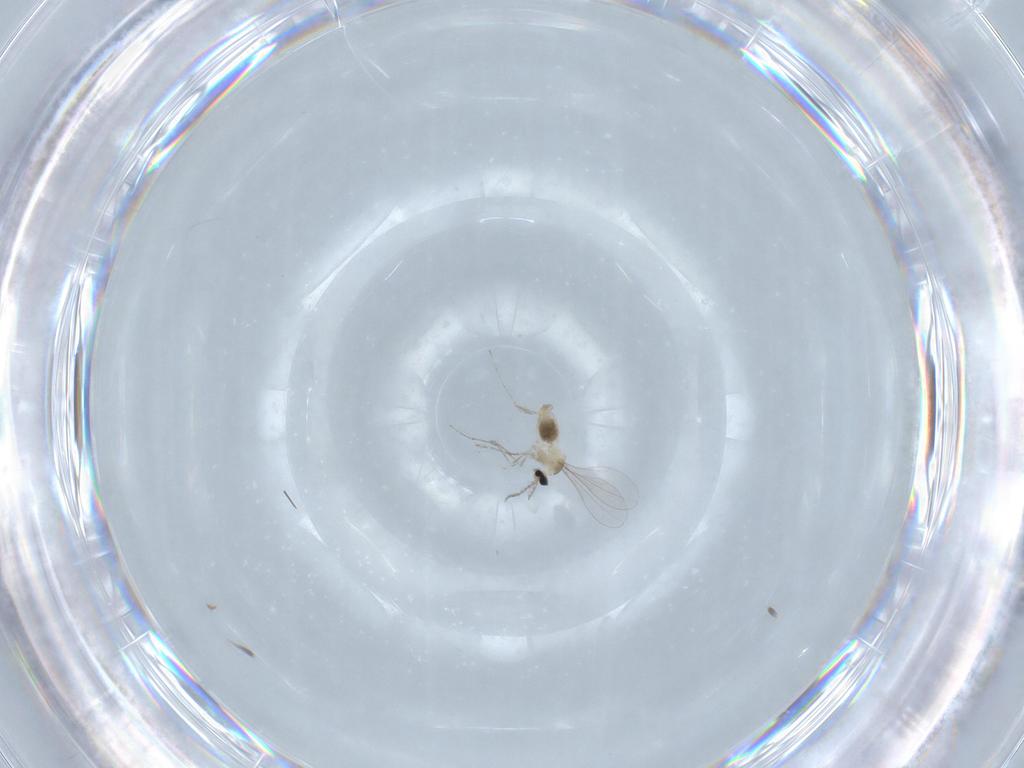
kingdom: Animalia
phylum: Arthropoda
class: Insecta
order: Diptera
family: Cecidomyiidae
